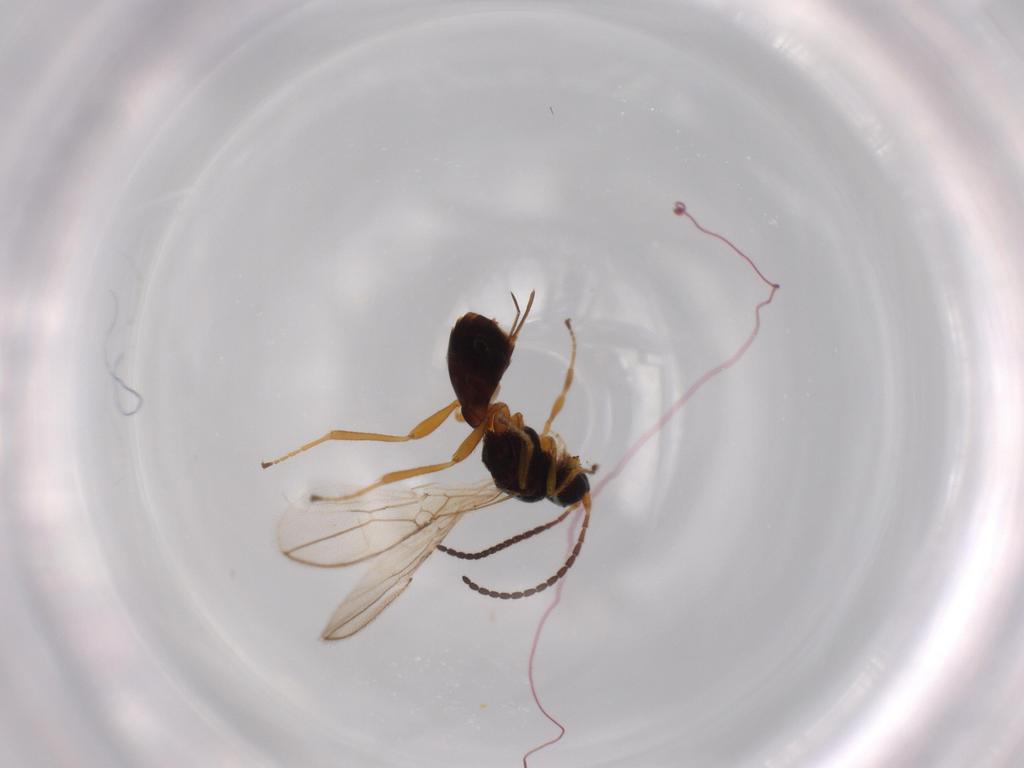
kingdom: Animalia
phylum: Arthropoda
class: Insecta
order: Hymenoptera
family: Braconidae
